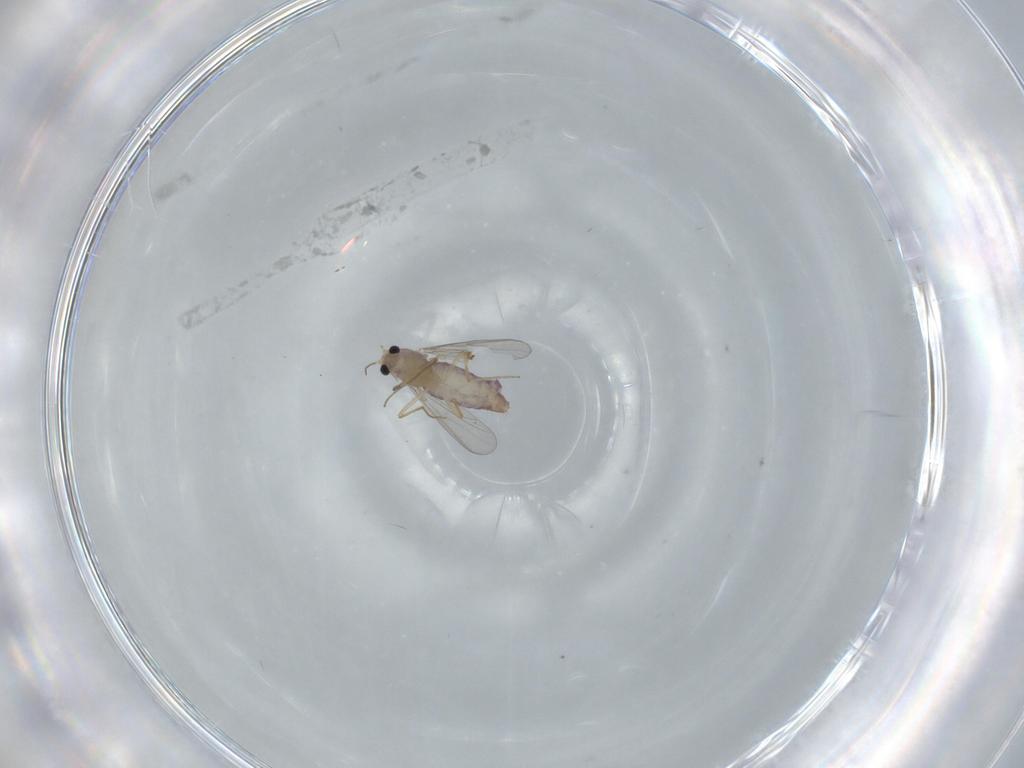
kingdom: Animalia
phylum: Arthropoda
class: Insecta
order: Diptera
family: Chironomidae
